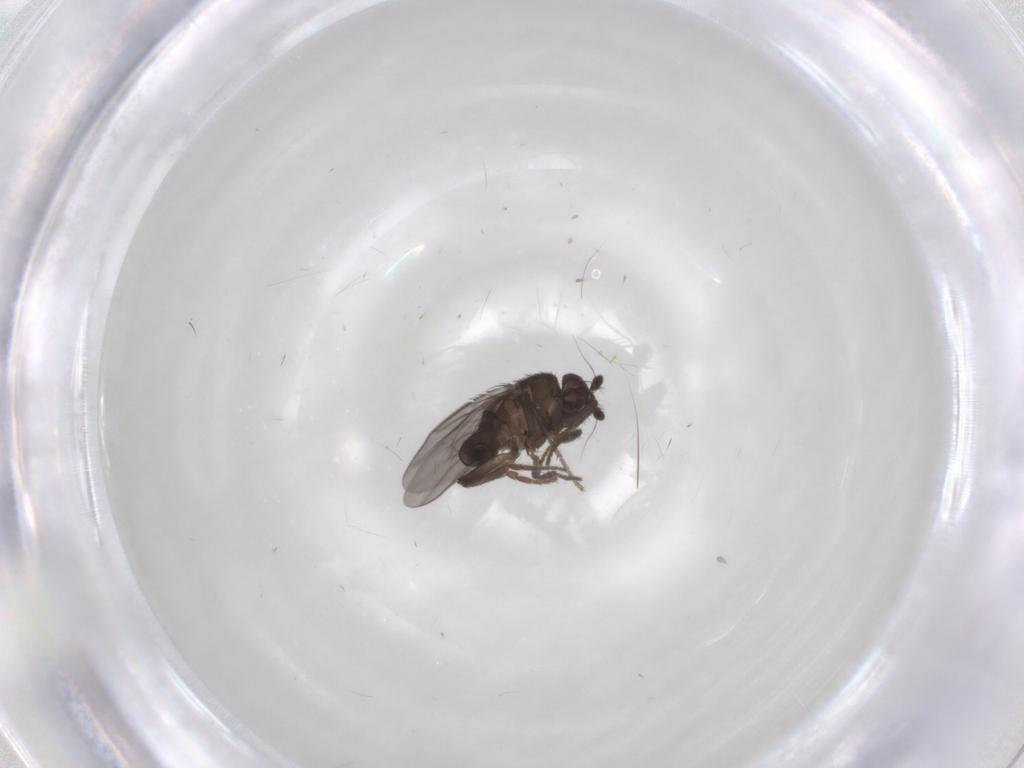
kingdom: Animalia
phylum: Arthropoda
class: Insecta
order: Diptera
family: Sphaeroceridae
